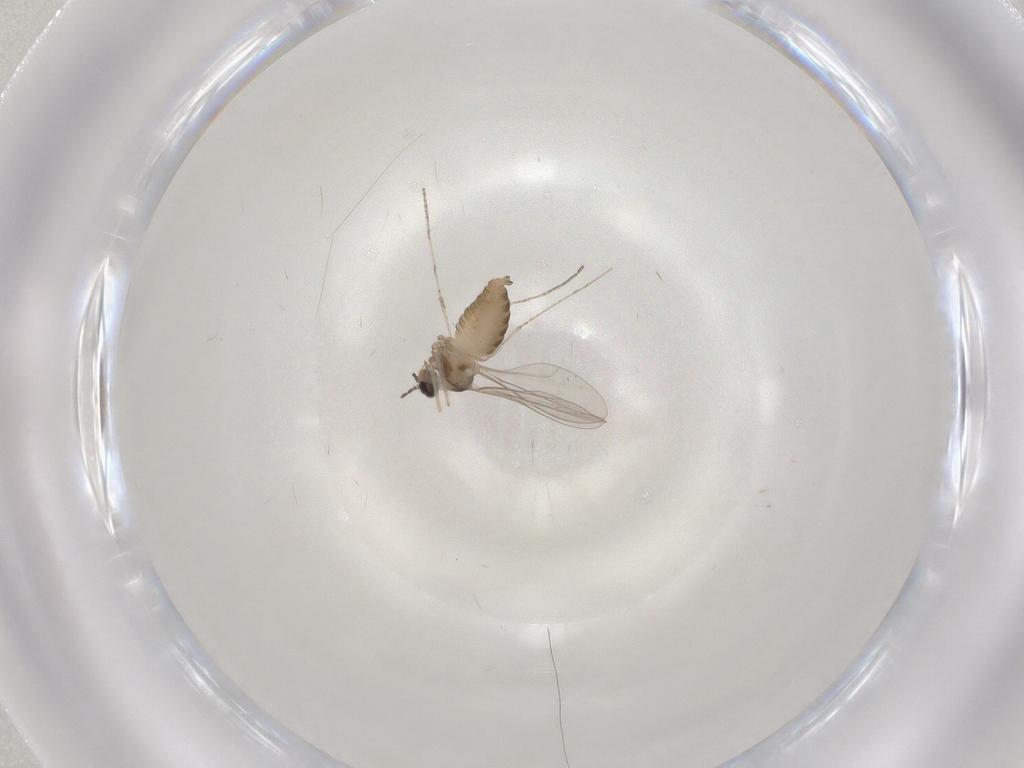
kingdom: Animalia
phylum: Arthropoda
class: Insecta
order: Diptera
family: Cecidomyiidae
